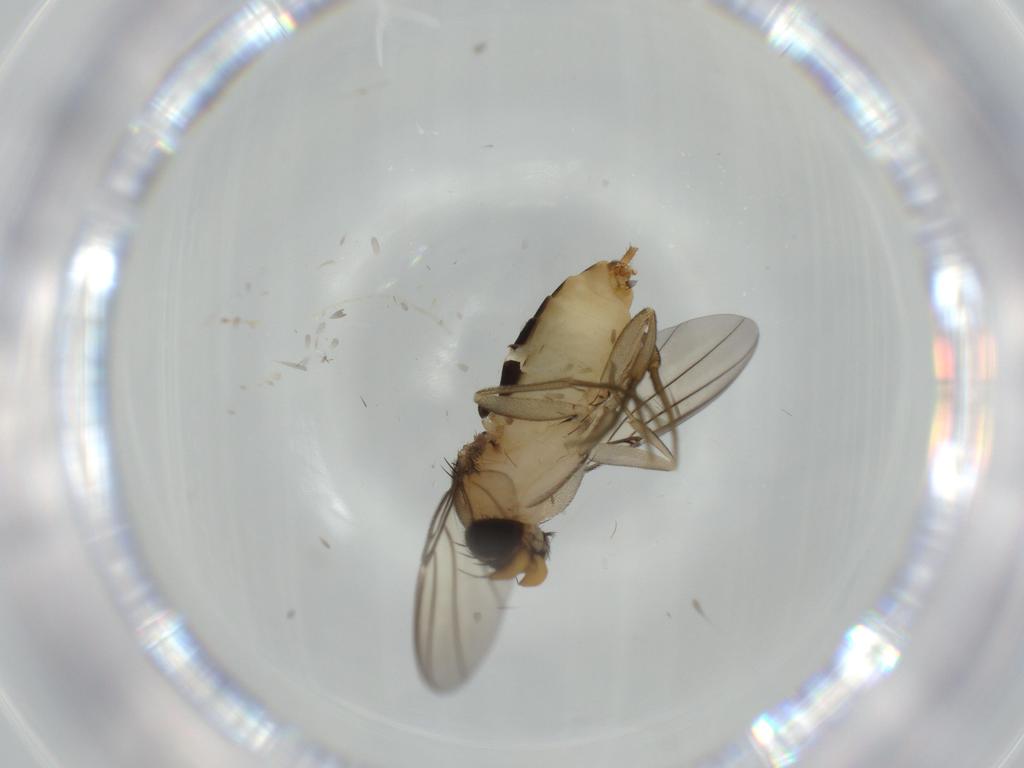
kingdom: Animalia
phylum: Arthropoda
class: Insecta
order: Diptera
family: Phoridae
